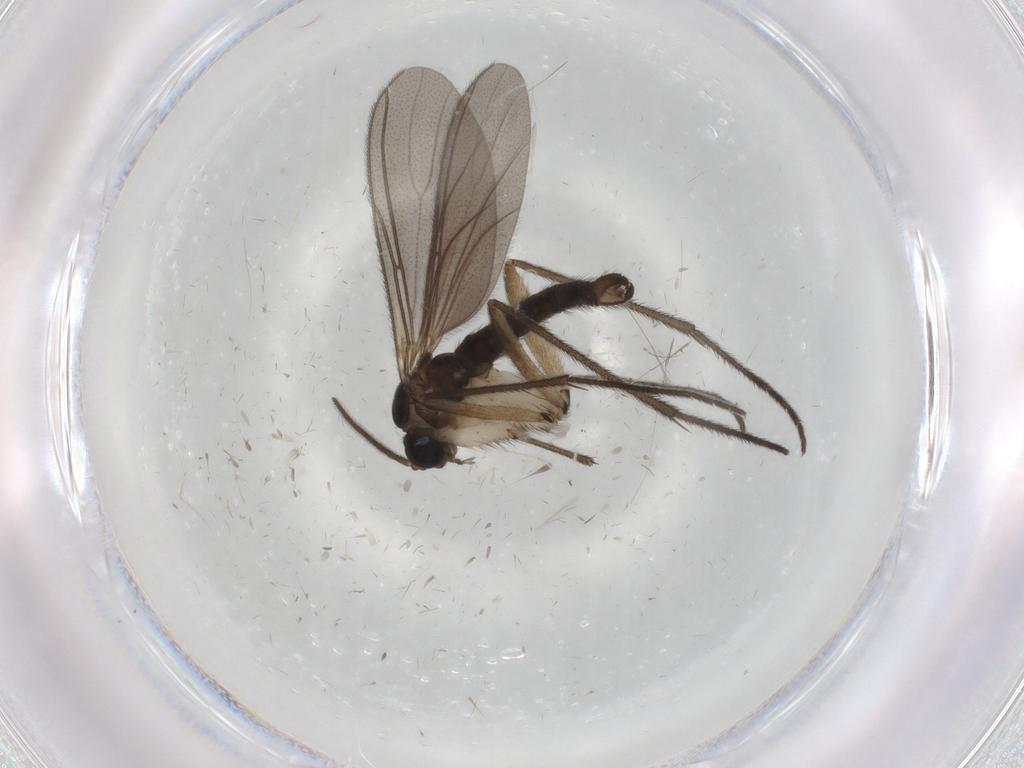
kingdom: Animalia
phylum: Arthropoda
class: Insecta
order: Diptera
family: Sciaridae
